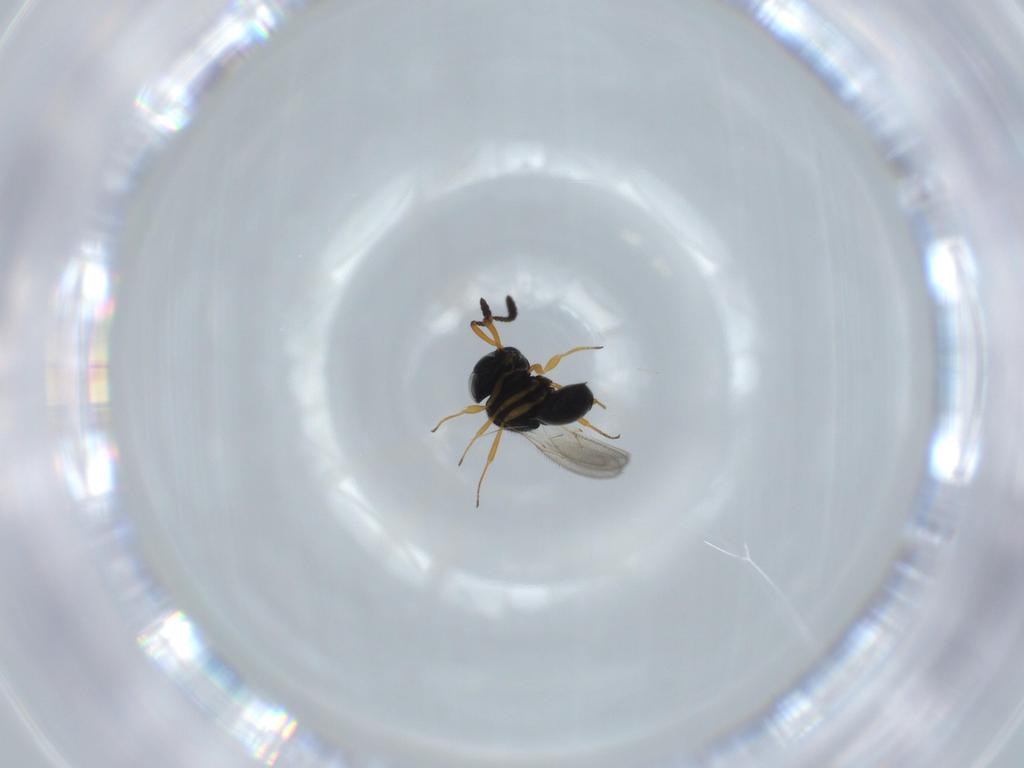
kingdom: Animalia
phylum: Arthropoda
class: Insecta
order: Hymenoptera
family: Scelionidae
